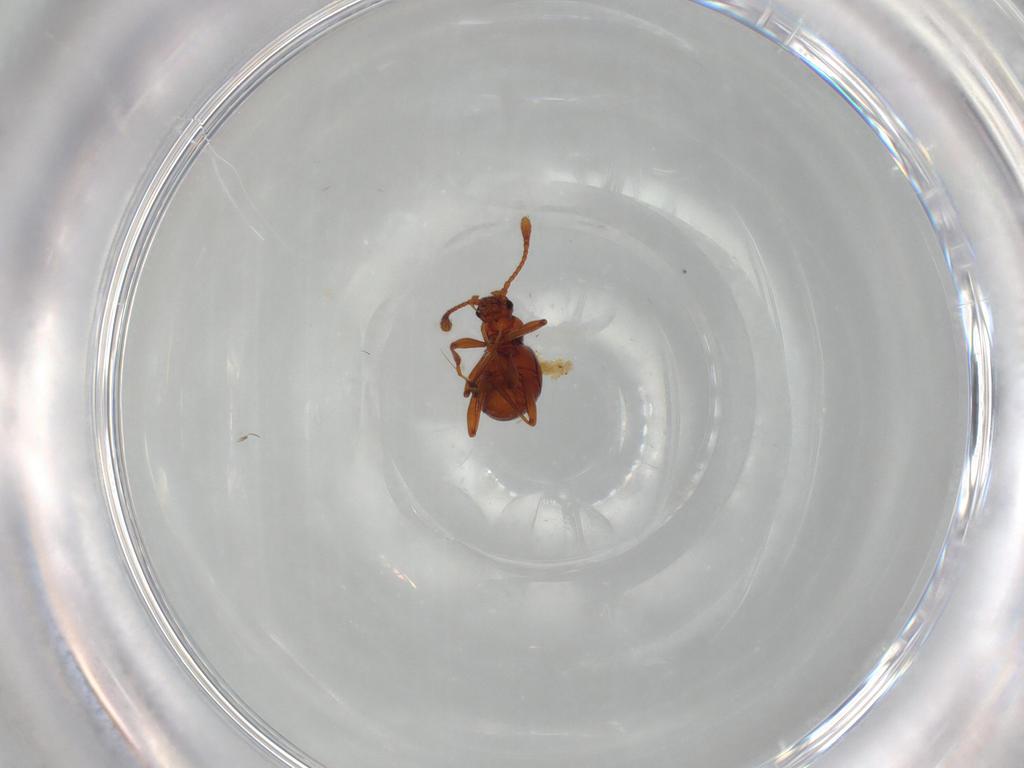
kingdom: Animalia
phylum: Arthropoda
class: Insecta
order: Coleoptera
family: Staphylinidae
